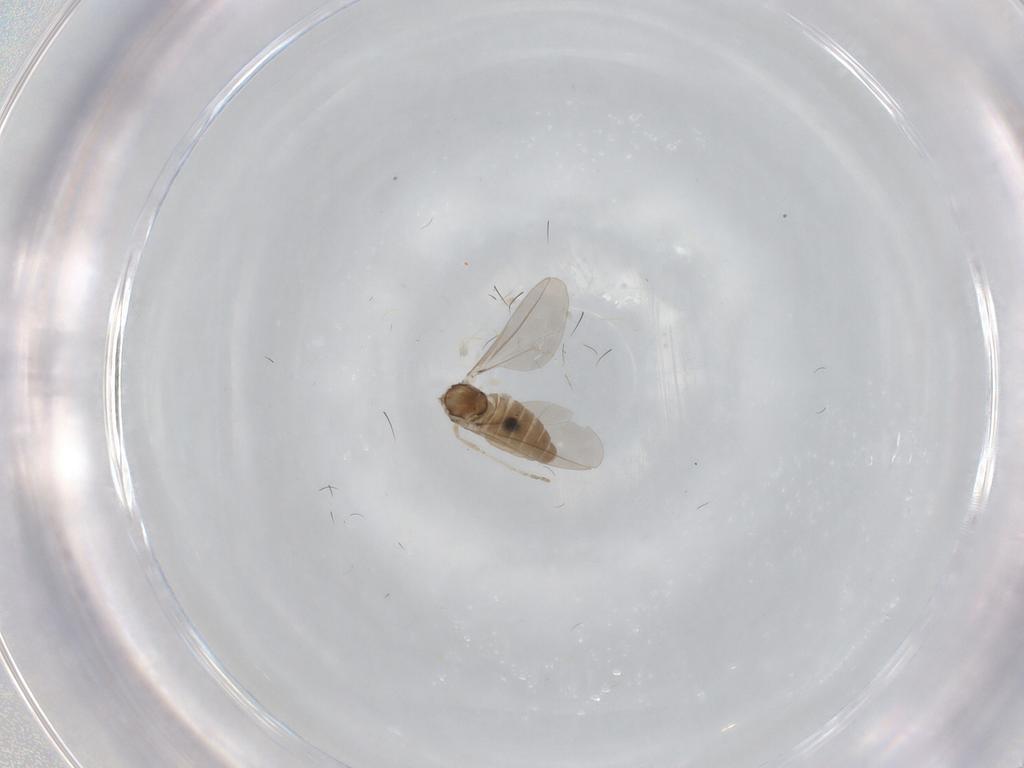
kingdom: Animalia
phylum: Arthropoda
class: Insecta
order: Diptera
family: Cecidomyiidae
